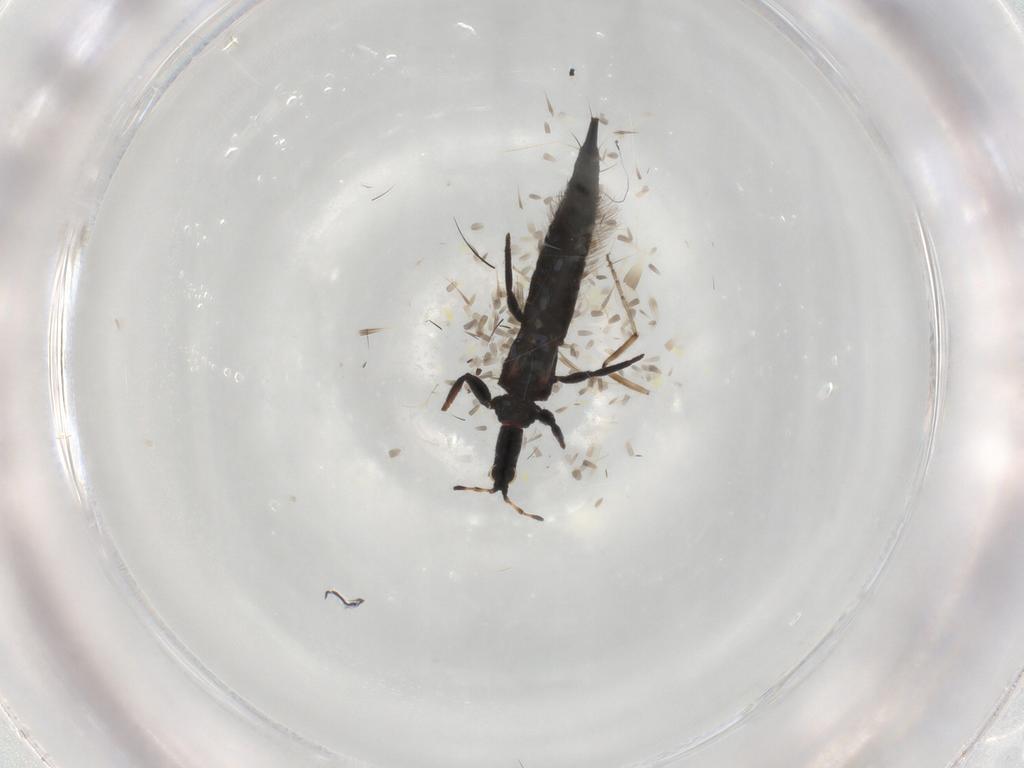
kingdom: Animalia
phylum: Arthropoda
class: Insecta
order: Thysanoptera
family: Phlaeothripidae
